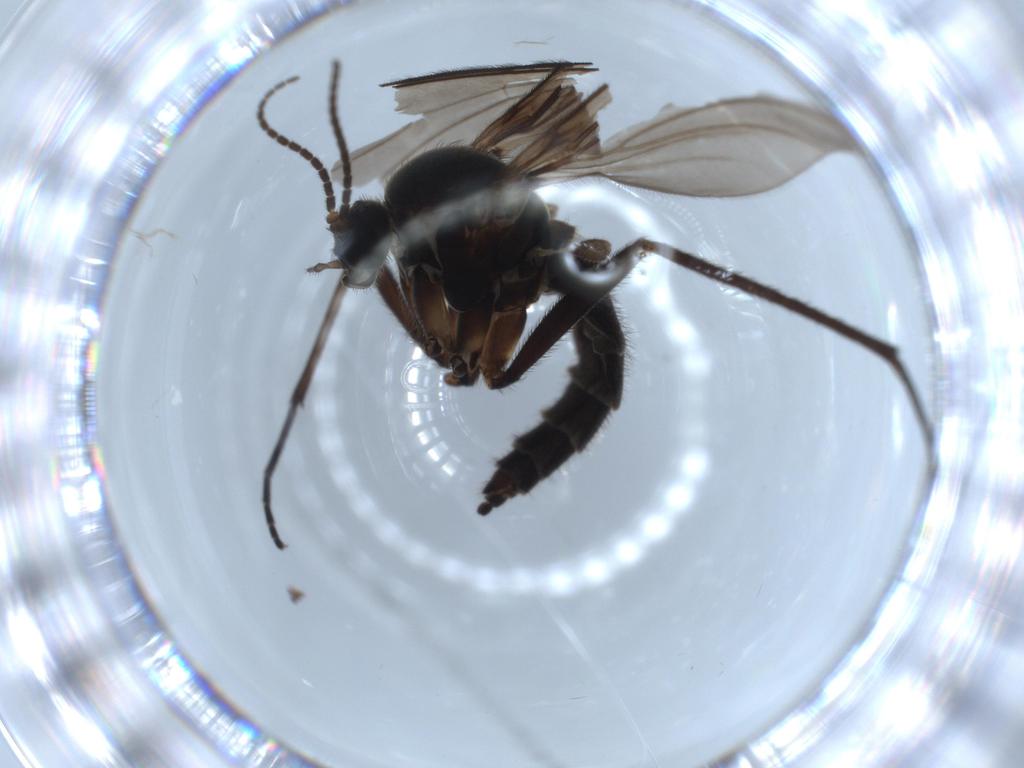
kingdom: Animalia
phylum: Arthropoda
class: Insecta
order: Diptera
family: Sciaridae
